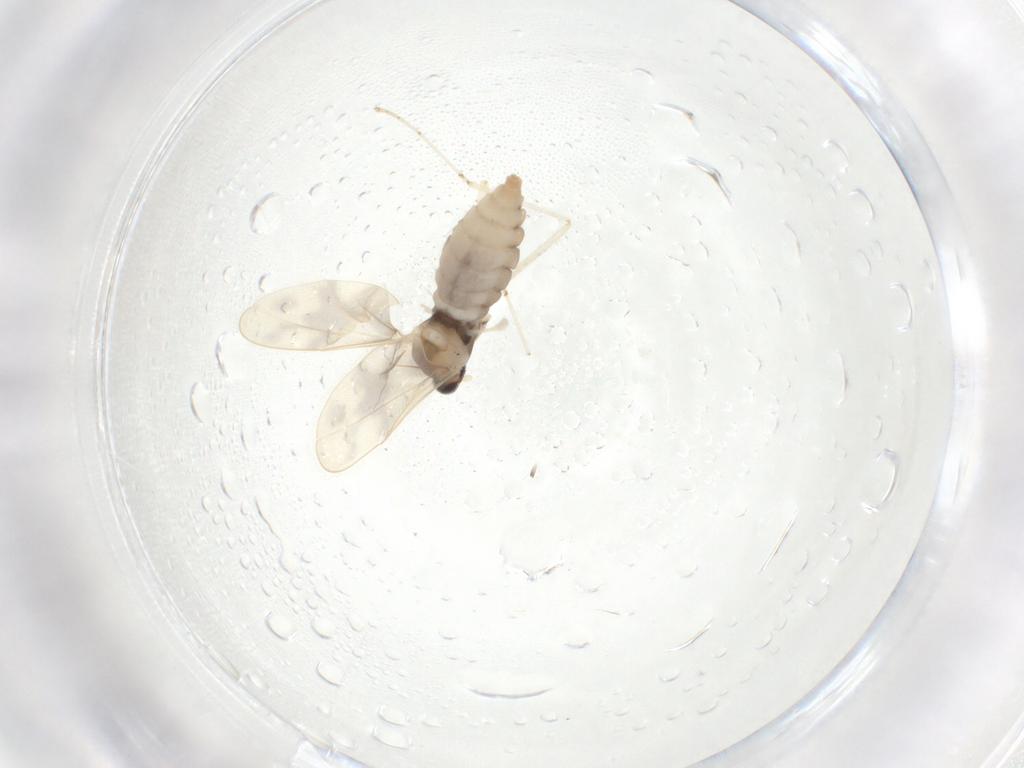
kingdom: Animalia
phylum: Arthropoda
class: Insecta
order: Diptera
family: Cecidomyiidae
